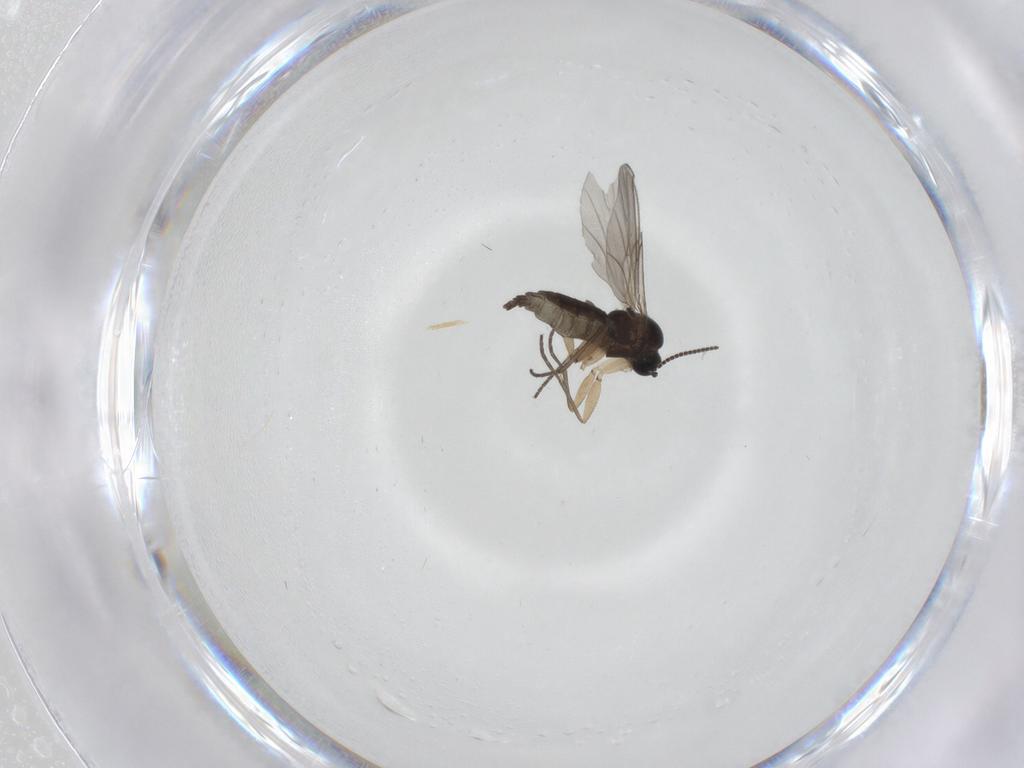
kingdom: Animalia
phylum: Arthropoda
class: Insecta
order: Diptera
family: Sciaridae
